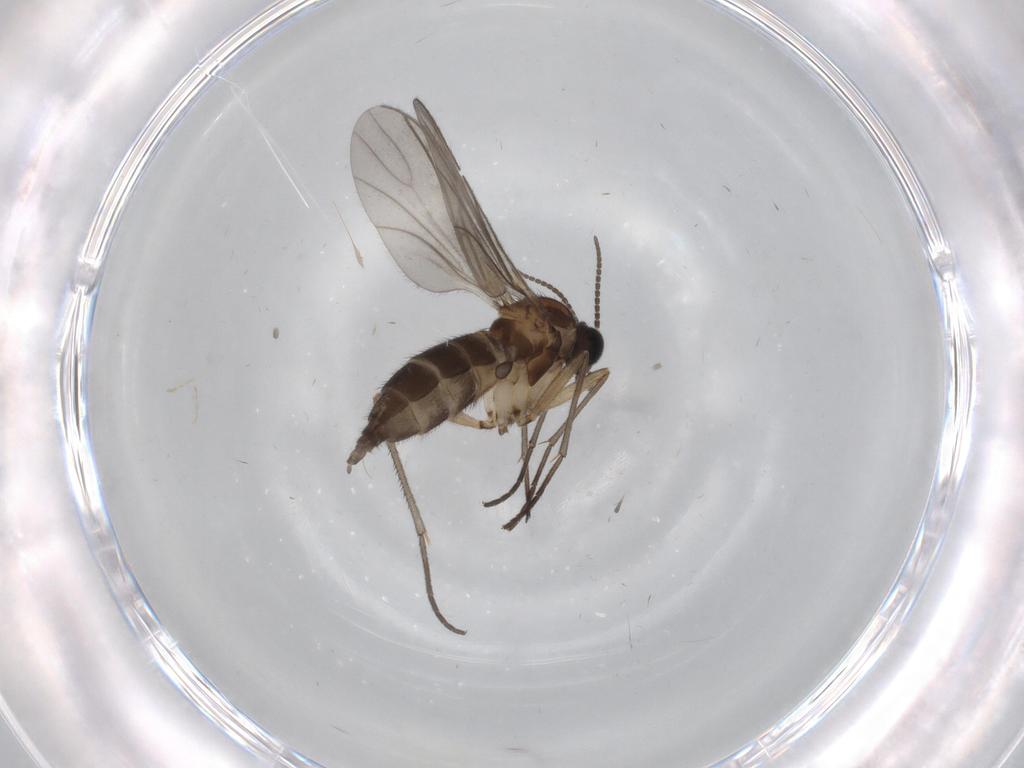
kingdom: Animalia
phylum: Arthropoda
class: Insecta
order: Diptera
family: Sciaridae
